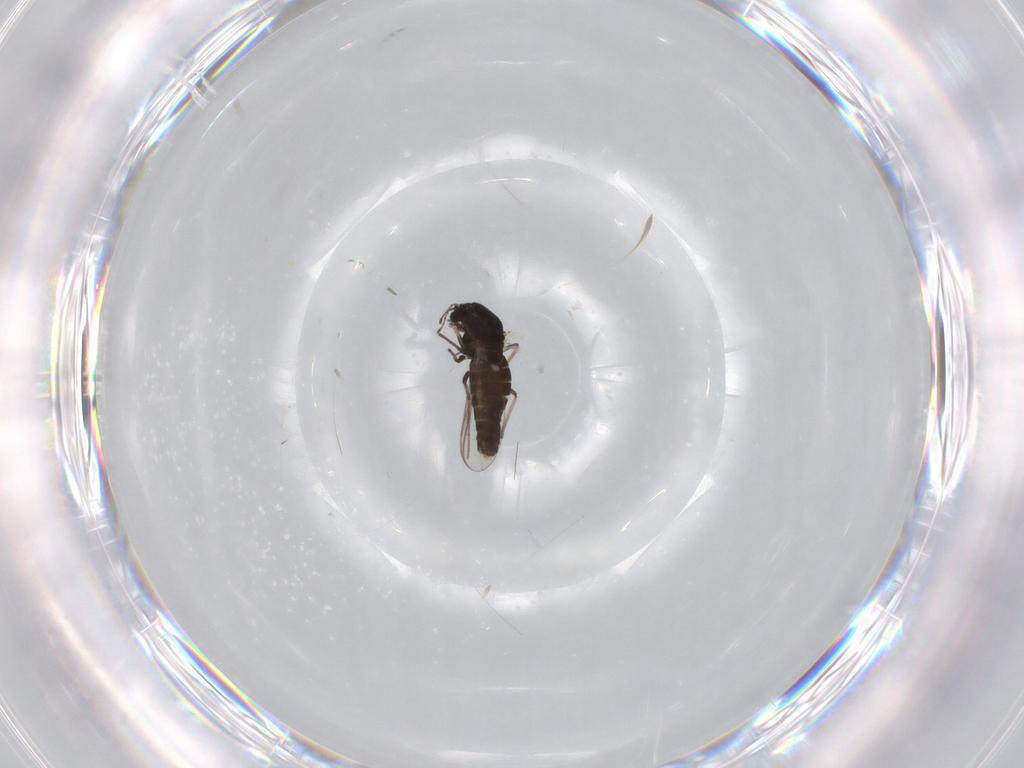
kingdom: Animalia
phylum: Arthropoda
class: Insecta
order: Diptera
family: Chironomidae
